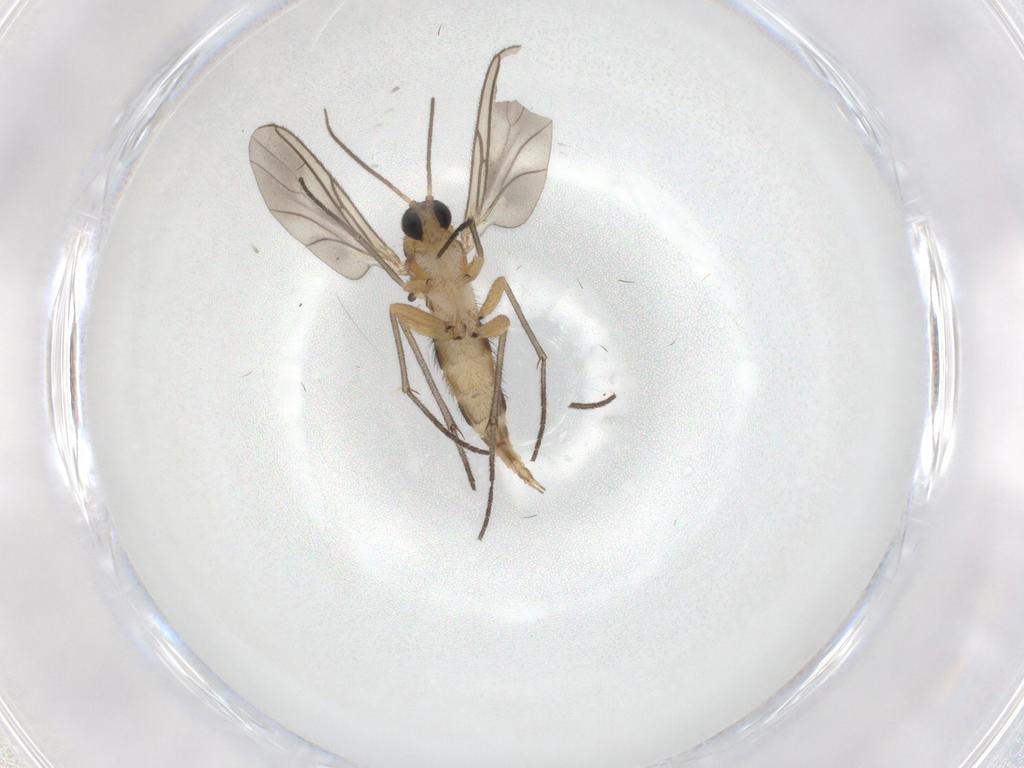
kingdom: Animalia
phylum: Arthropoda
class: Insecta
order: Diptera
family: Sciaridae
